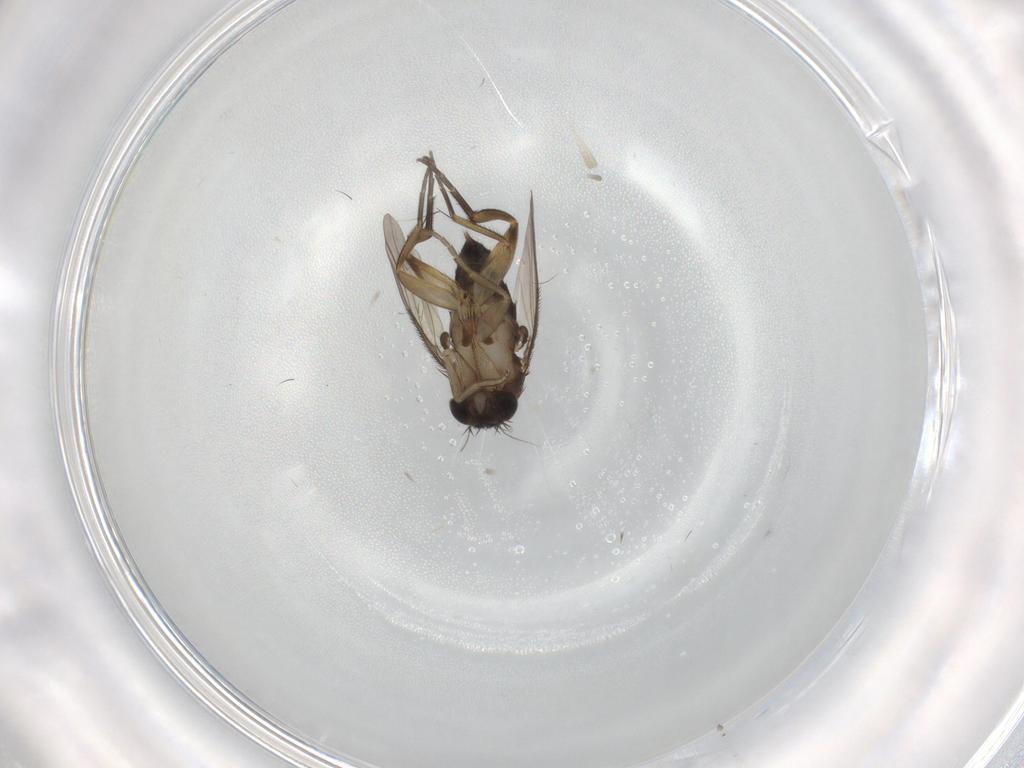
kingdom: Animalia
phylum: Arthropoda
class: Insecta
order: Diptera
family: Phoridae
